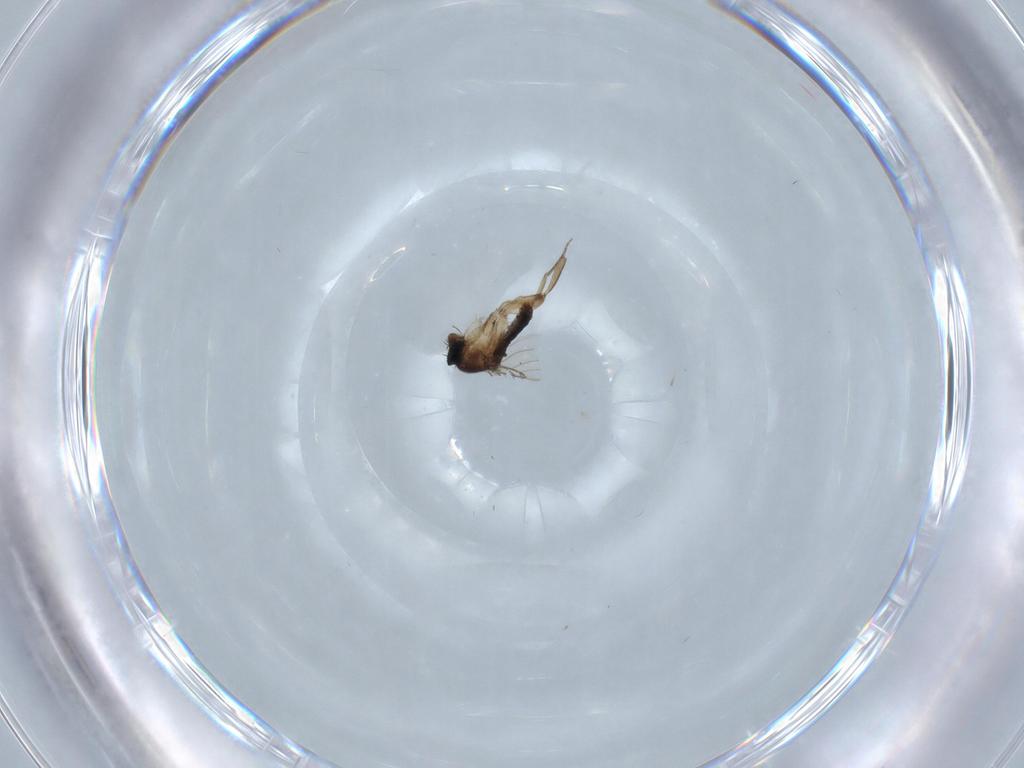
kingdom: Animalia
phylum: Arthropoda
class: Insecta
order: Diptera
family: Phoridae
